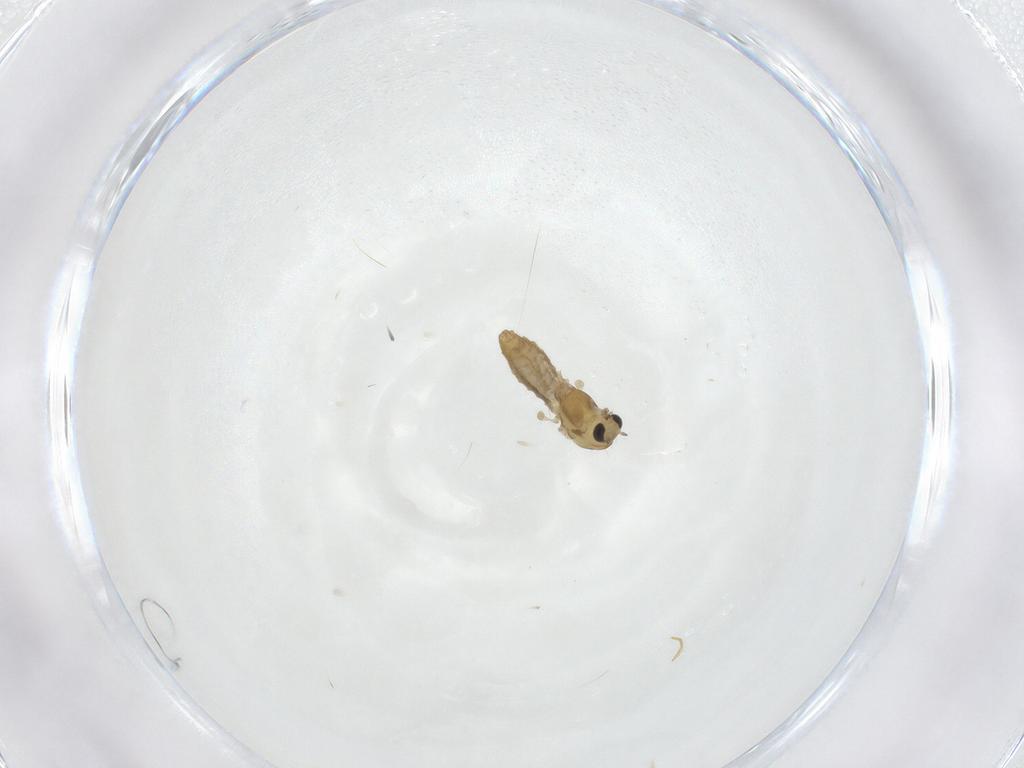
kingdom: Animalia
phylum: Arthropoda
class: Insecta
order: Diptera
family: Chironomidae
